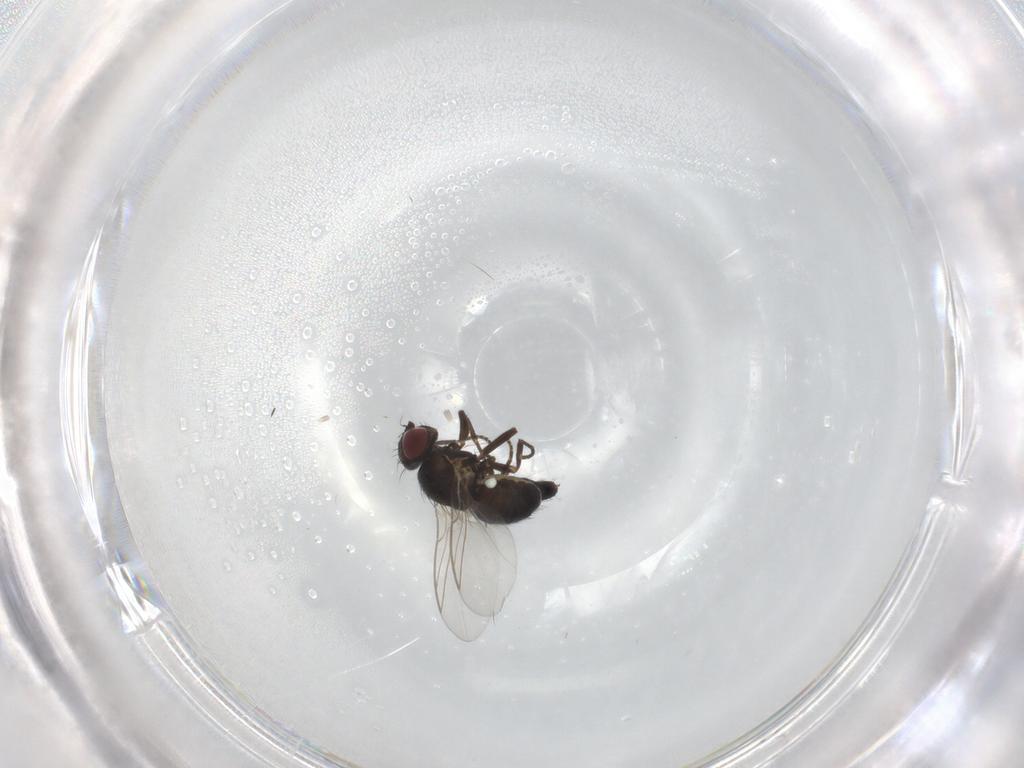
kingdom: Animalia
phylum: Arthropoda
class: Insecta
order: Diptera
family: Agromyzidae
